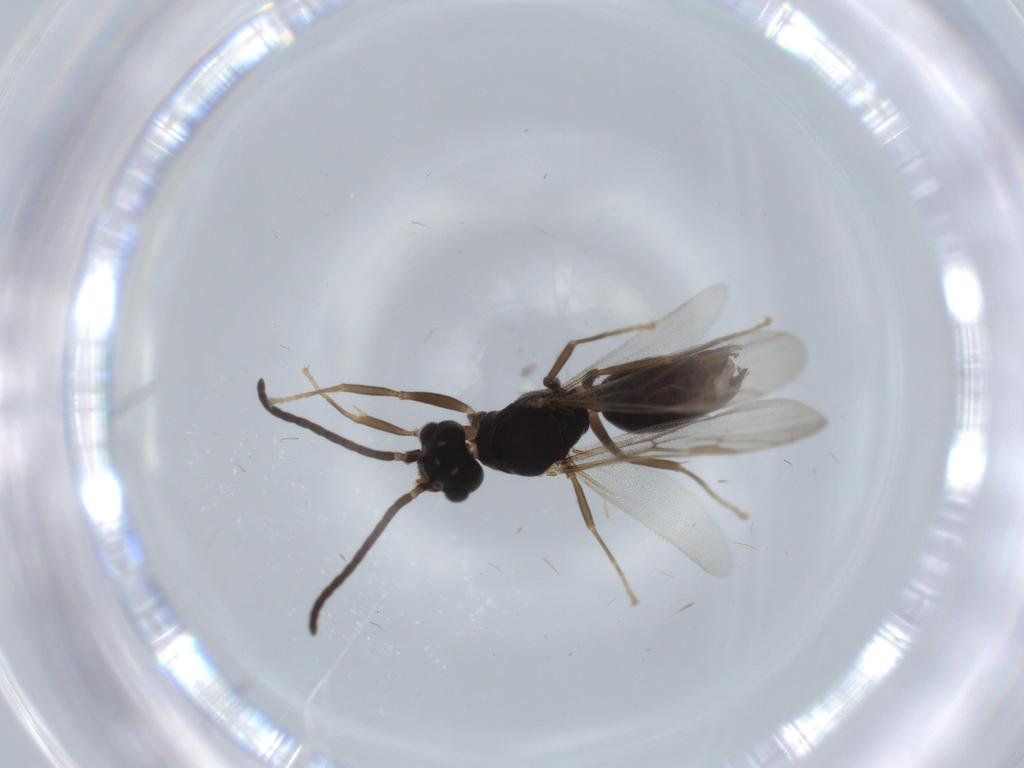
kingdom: Animalia
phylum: Arthropoda
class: Insecta
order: Hymenoptera
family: Formicidae
